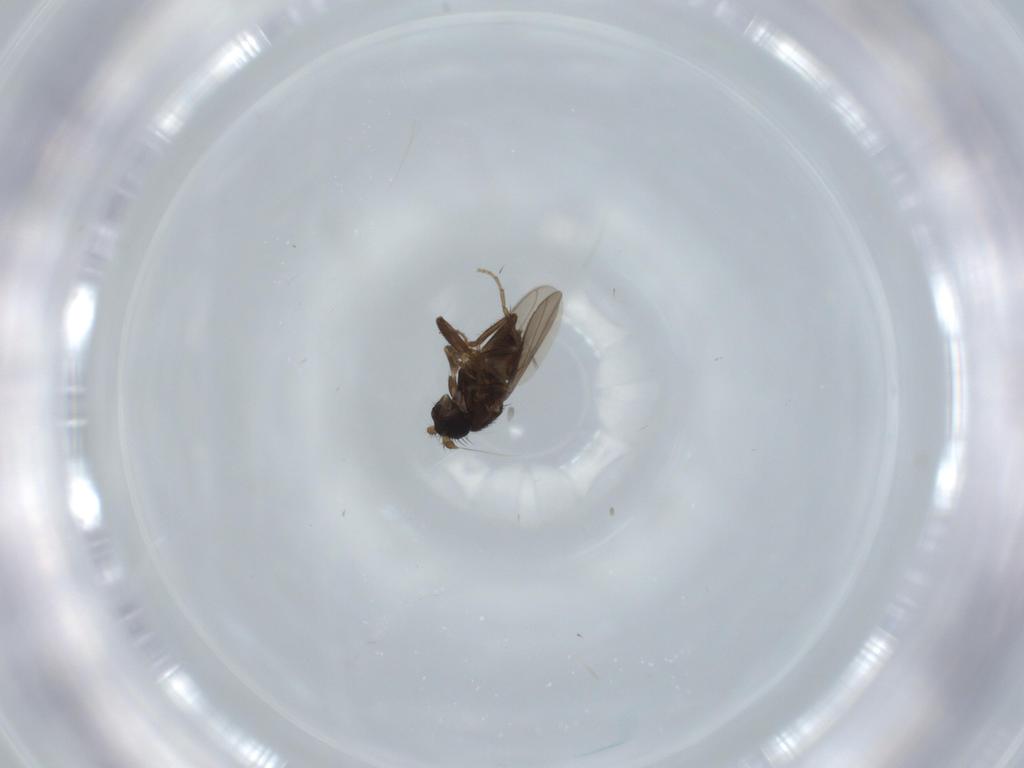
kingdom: Animalia
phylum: Arthropoda
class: Insecta
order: Diptera
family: Sphaeroceridae
